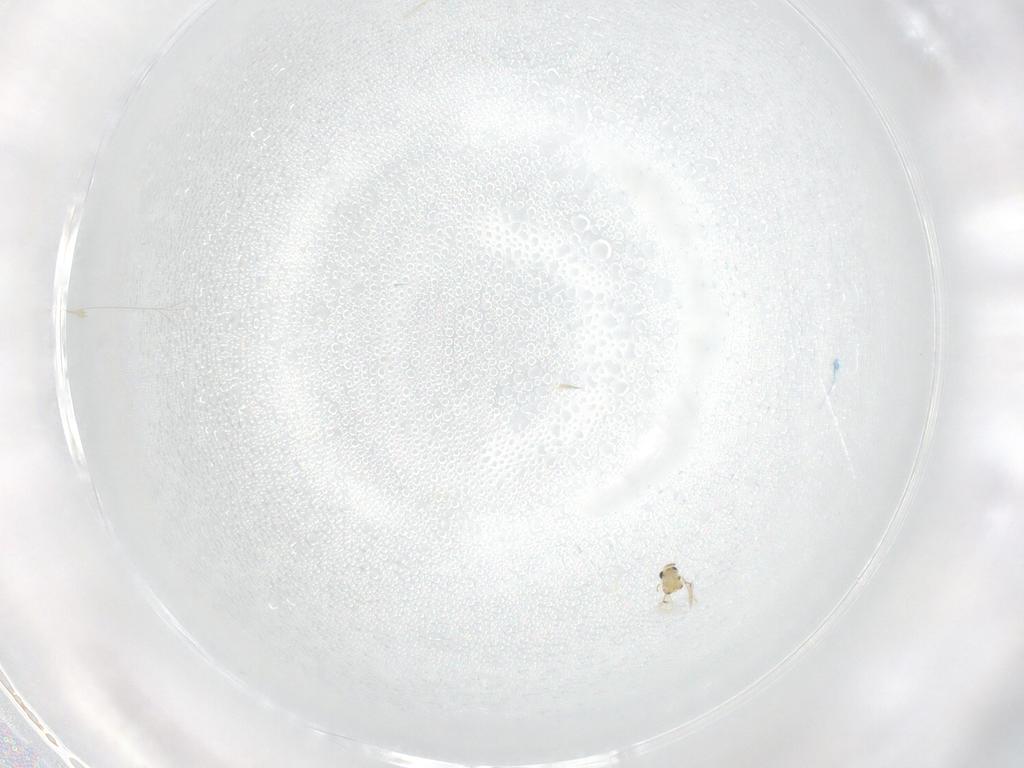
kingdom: Animalia
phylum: Arthropoda
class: Insecta
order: Hymenoptera
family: Trichogrammatidae
